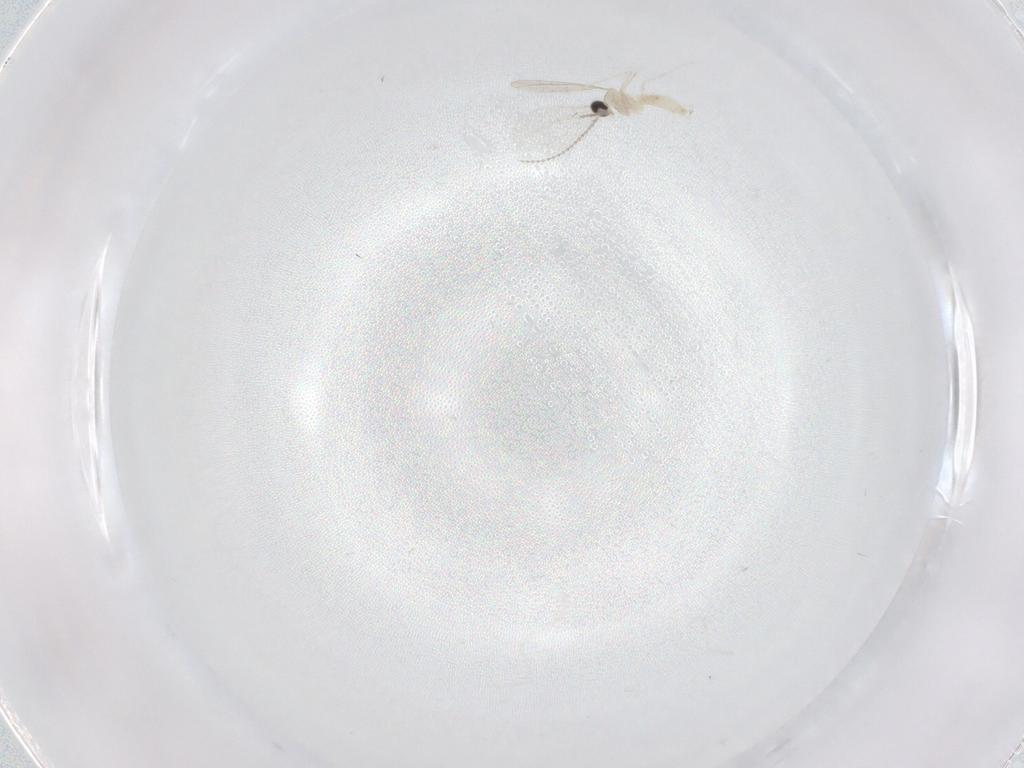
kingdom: Animalia
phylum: Arthropoda
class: Insecta
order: Diptera
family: Cecidomyiidae
